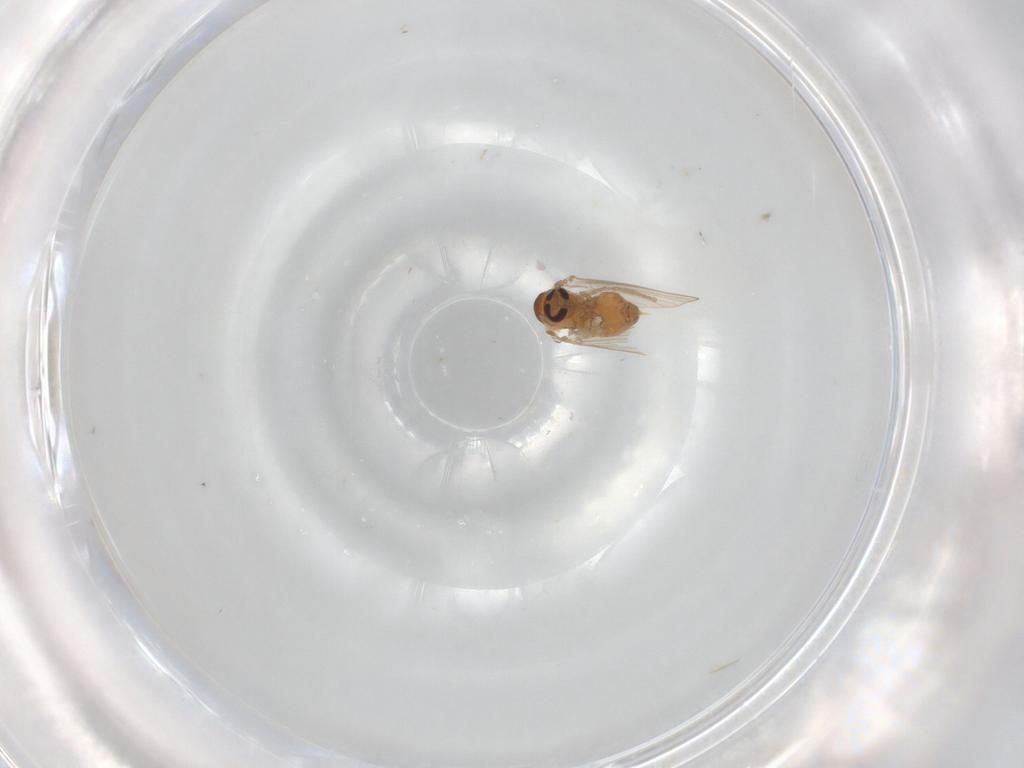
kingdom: Animalia
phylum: Arthropoda
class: Insecta
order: Diptera
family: Psychodidae
